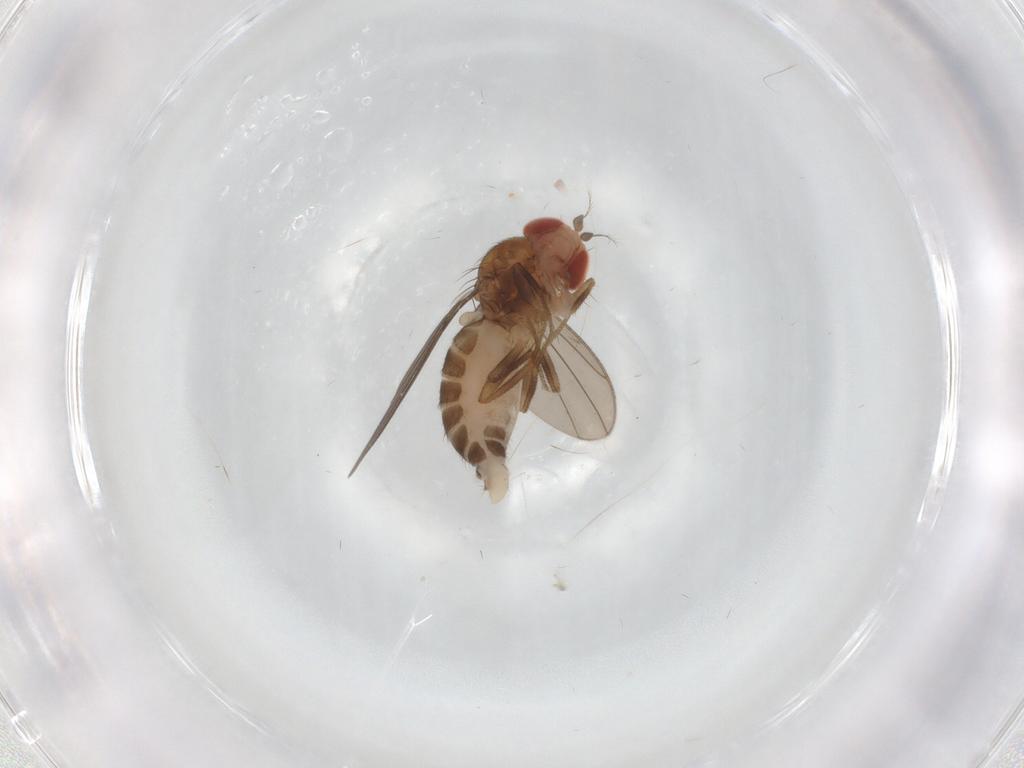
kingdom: Animalia
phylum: Arthropoda
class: Insecta
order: Diptera
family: Drosophilidae
